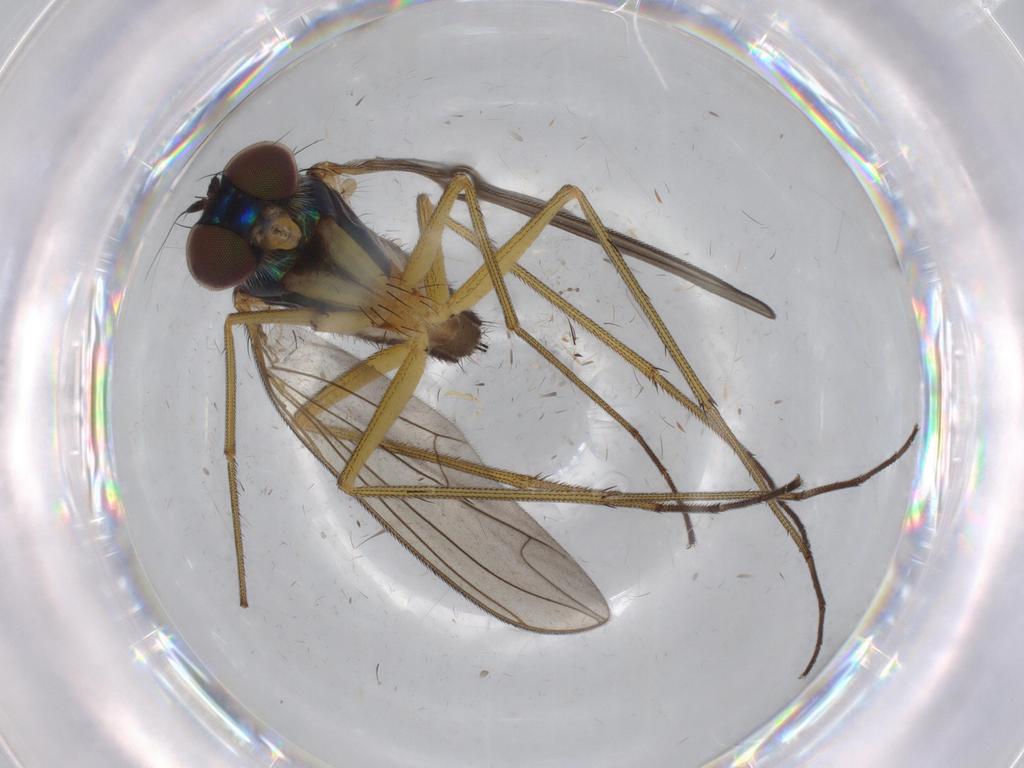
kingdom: Animalia
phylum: Arthropoda
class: Insecta
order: Diptera
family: Dolichopodidae
